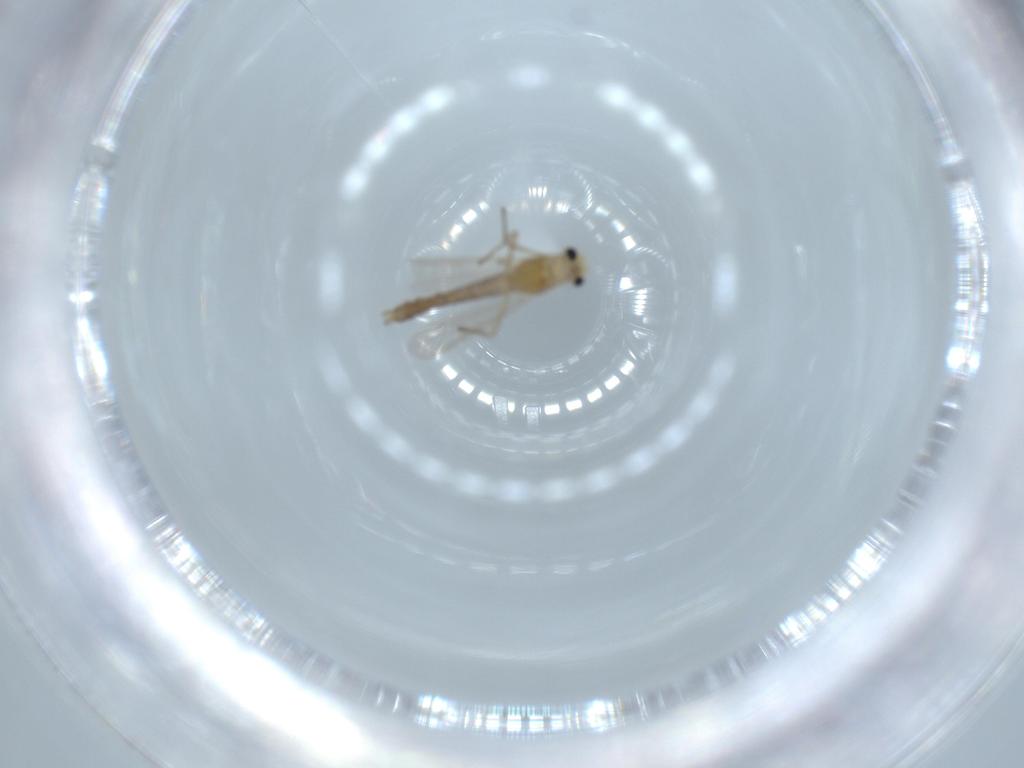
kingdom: Animalia
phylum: Arthropoda
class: Insecta
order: Diptera
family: Chironomidae
